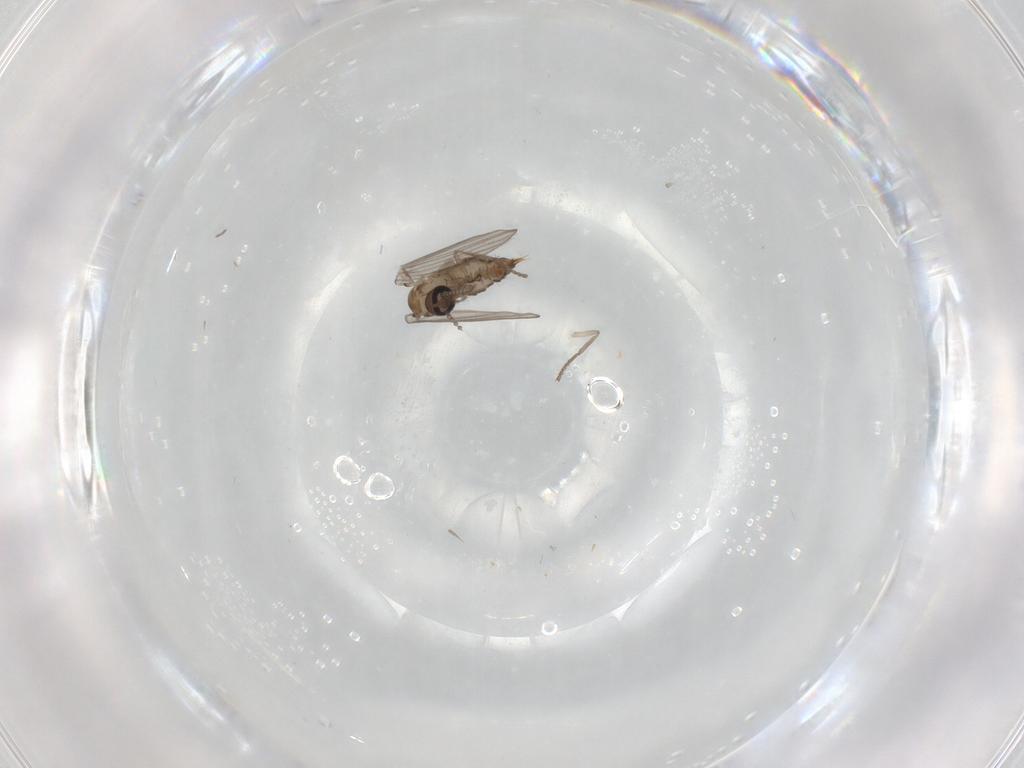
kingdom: Animalia
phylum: Arthropoda
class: Insecta
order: Diptera
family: Psychodidae
